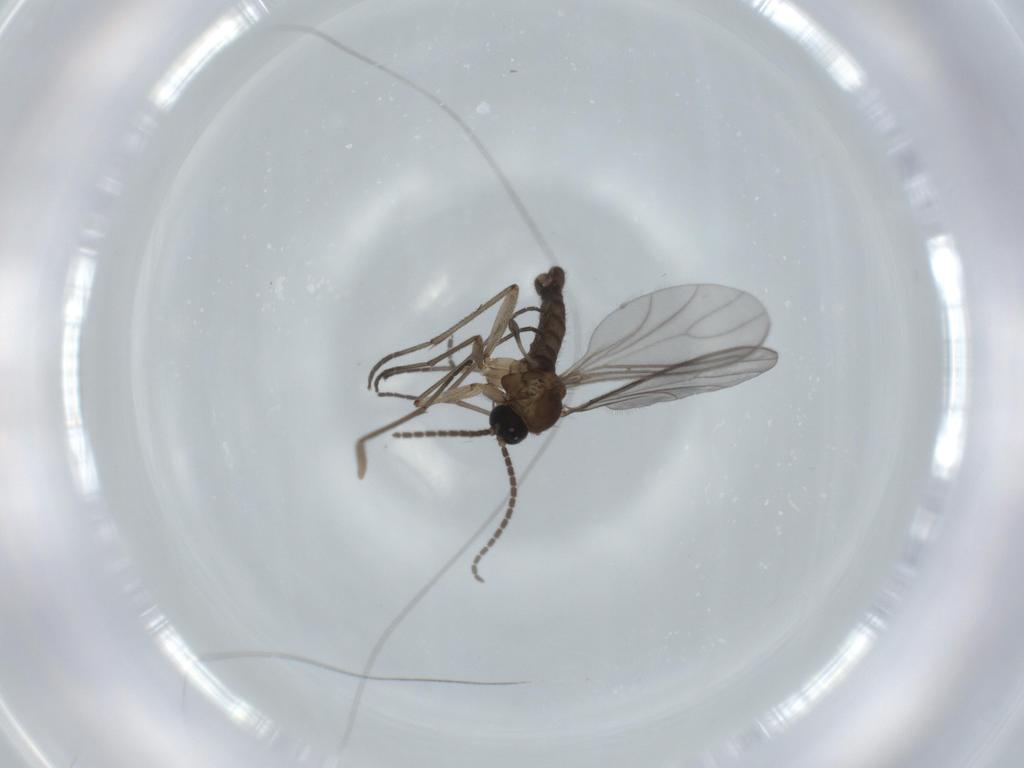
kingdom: Animalia
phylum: Arthropoda
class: Insecta
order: Diptera
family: Sciaridae
